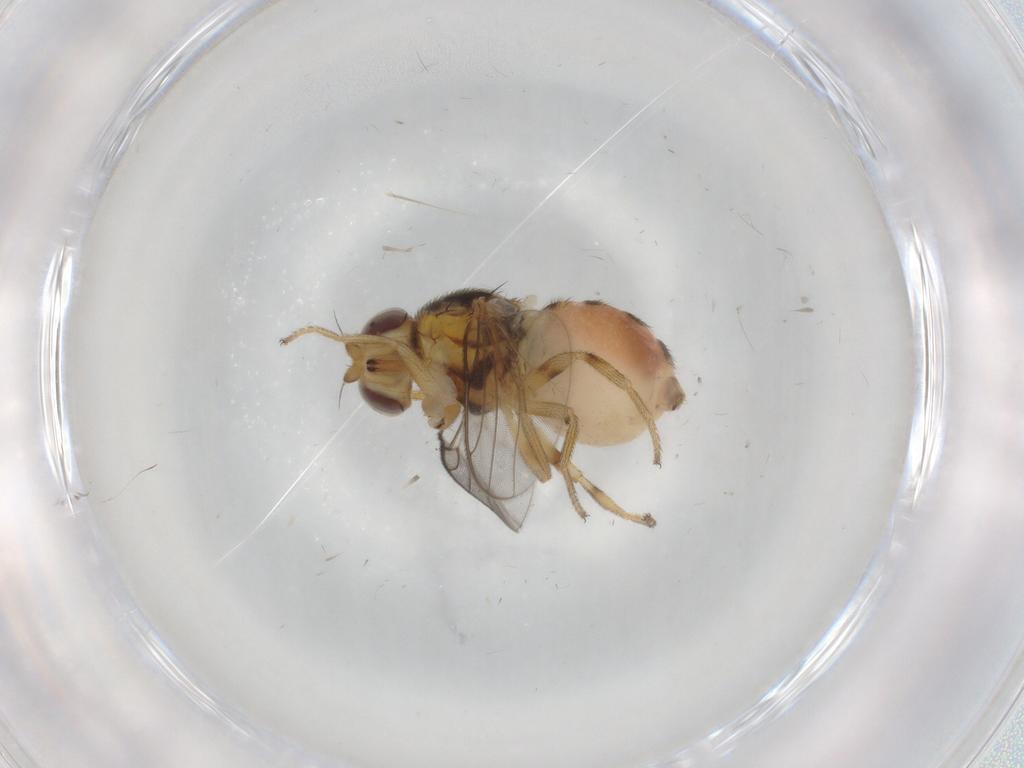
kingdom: Animalia
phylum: Arthropoda
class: Insecta
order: Diptera
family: Chloropidae
